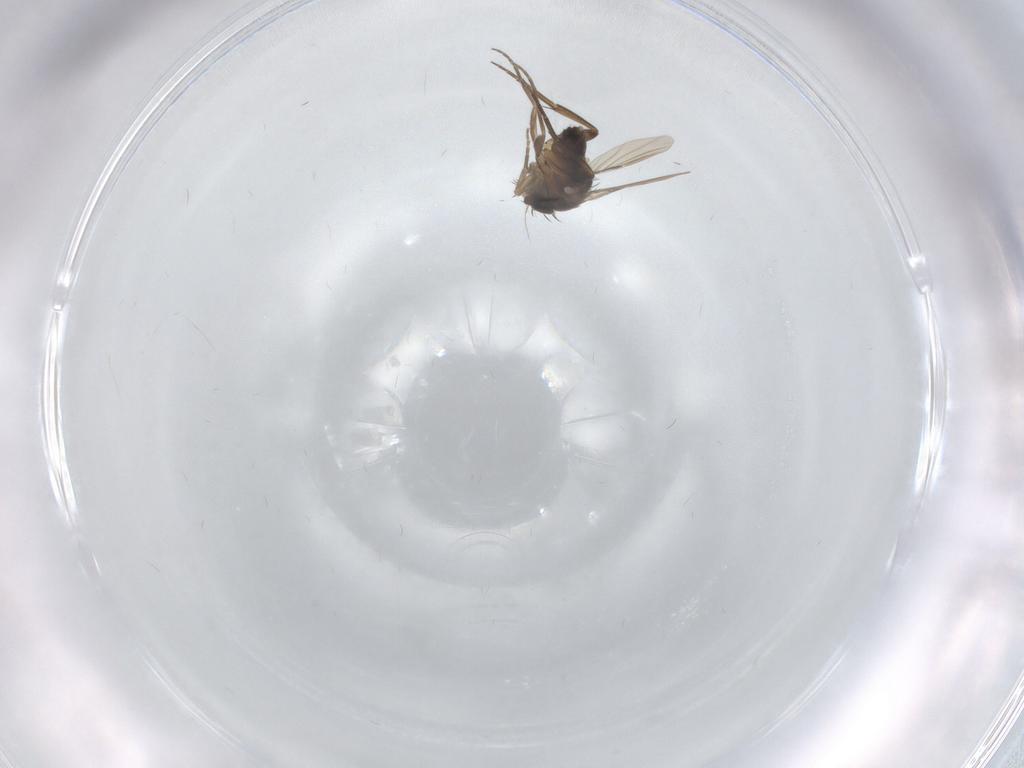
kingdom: Animalia
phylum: Arthropoda
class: Insecta
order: Diptera
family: Phoridae
